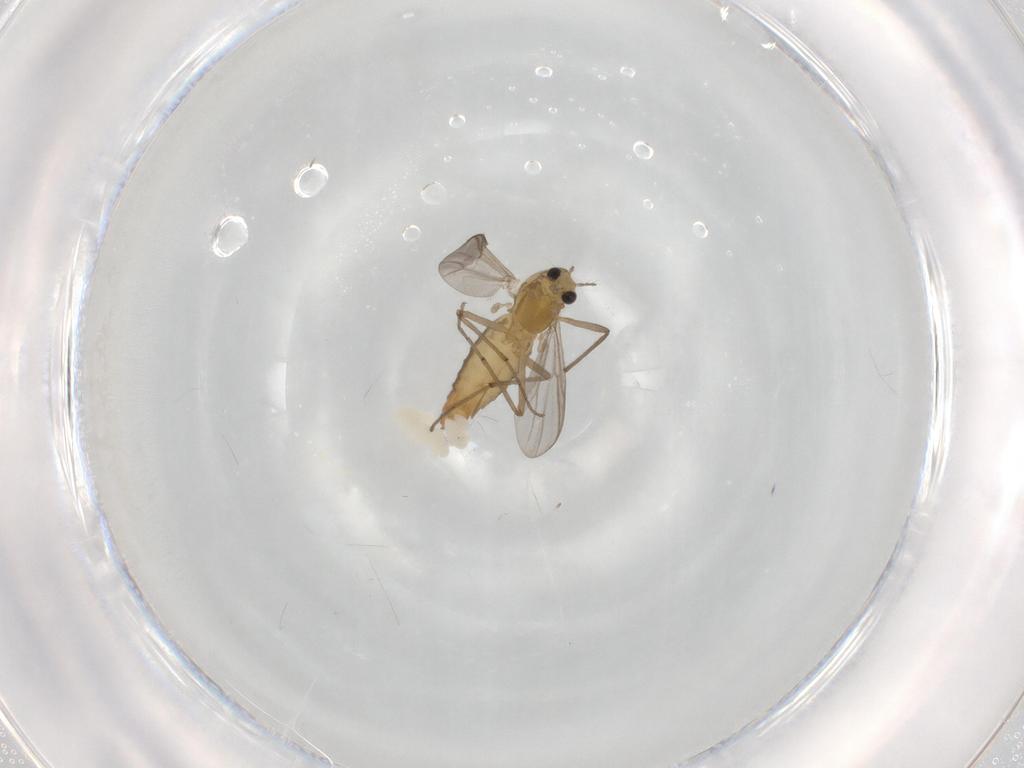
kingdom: Animalia
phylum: Arthropoda
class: Insecta
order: Diptera
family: Chironomidae
